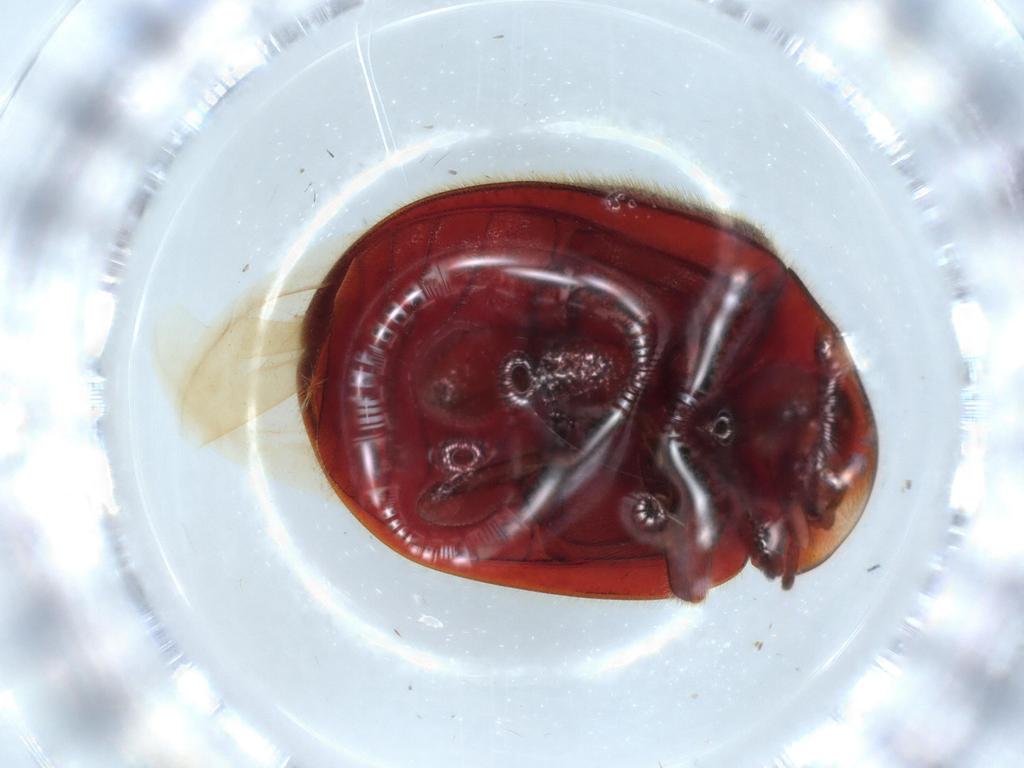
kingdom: Animalia
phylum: Arthropoda
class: Insecta
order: Coleoptera
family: Coccinellidae
